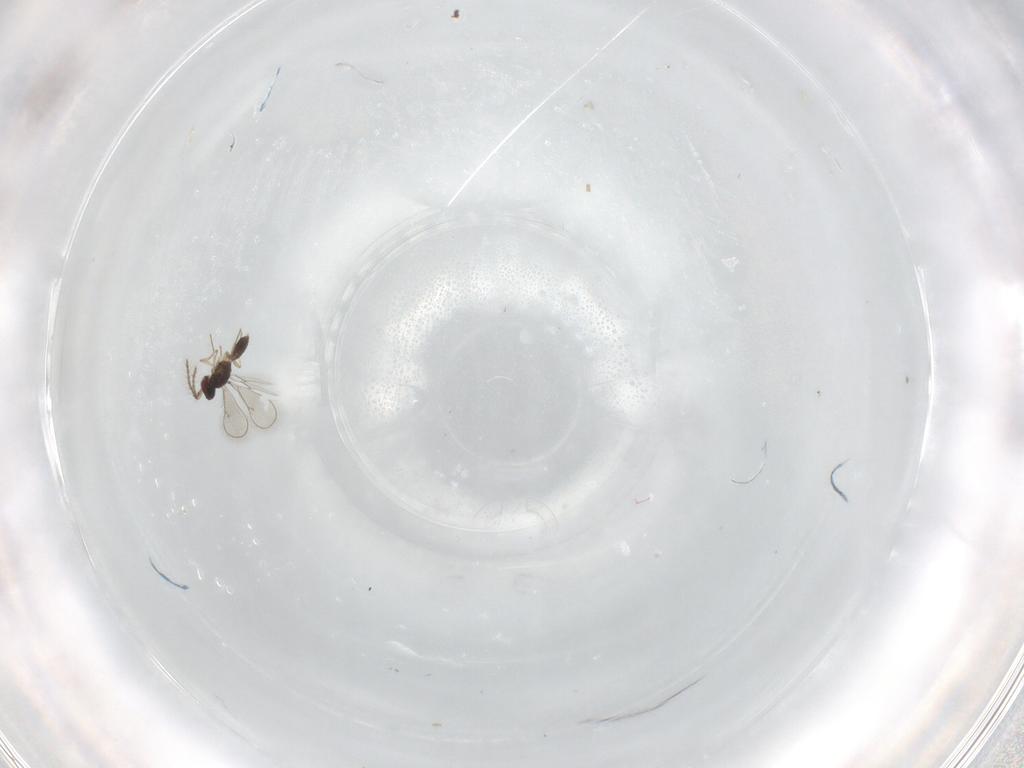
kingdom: Animalia
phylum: Arthropoda
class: Insecta
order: Hymenoptera
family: Eulophidae
